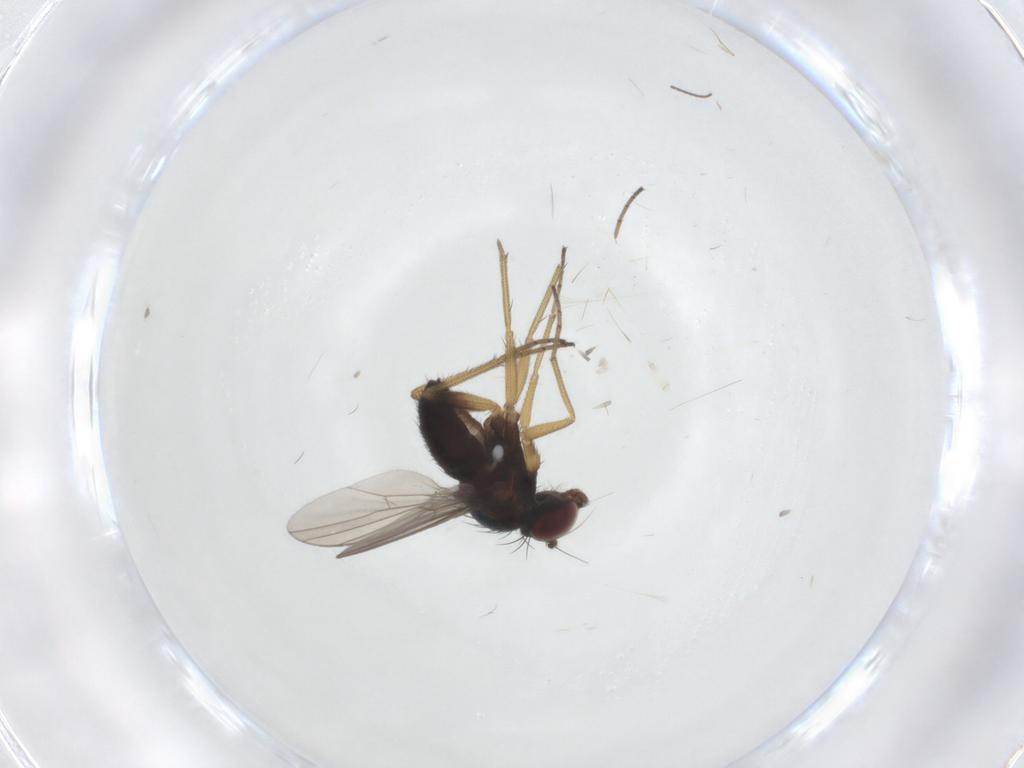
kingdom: Animalia
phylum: Arthropoda
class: Insecta
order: Diptera
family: Dolichopodidae
